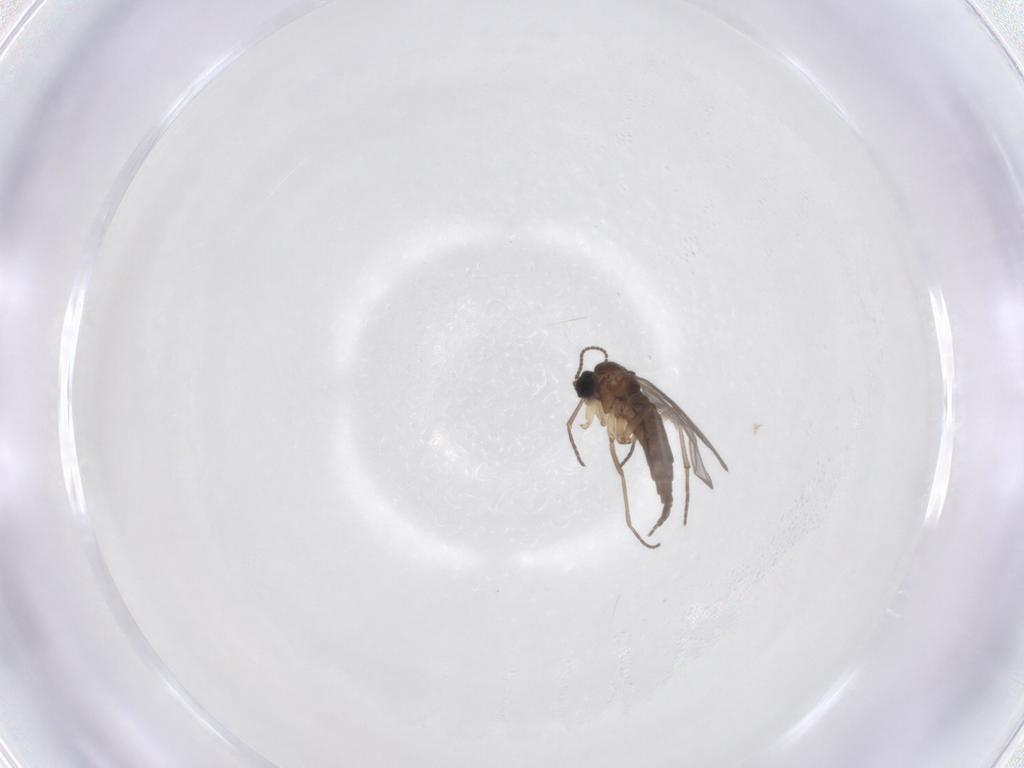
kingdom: Animalia
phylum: Arthropoda
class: Insecta
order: Diptera
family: Sciaridae
